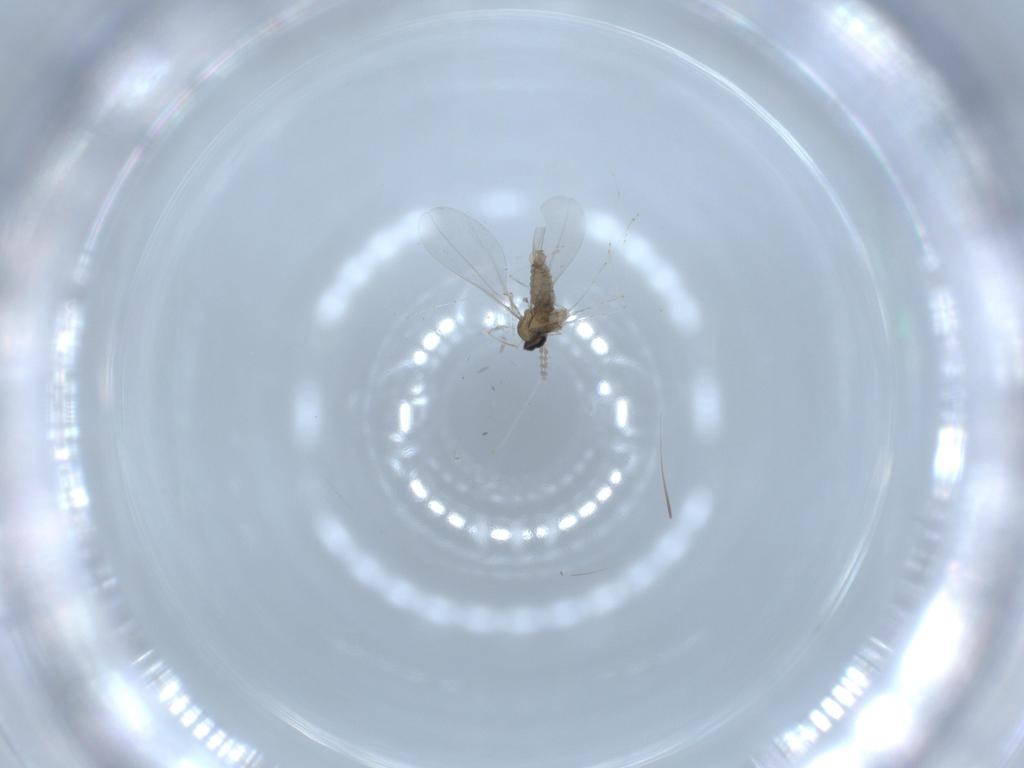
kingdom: Animalia
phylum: Arthropoda
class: Insecta
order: Diptera
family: Cecidomyiidae
